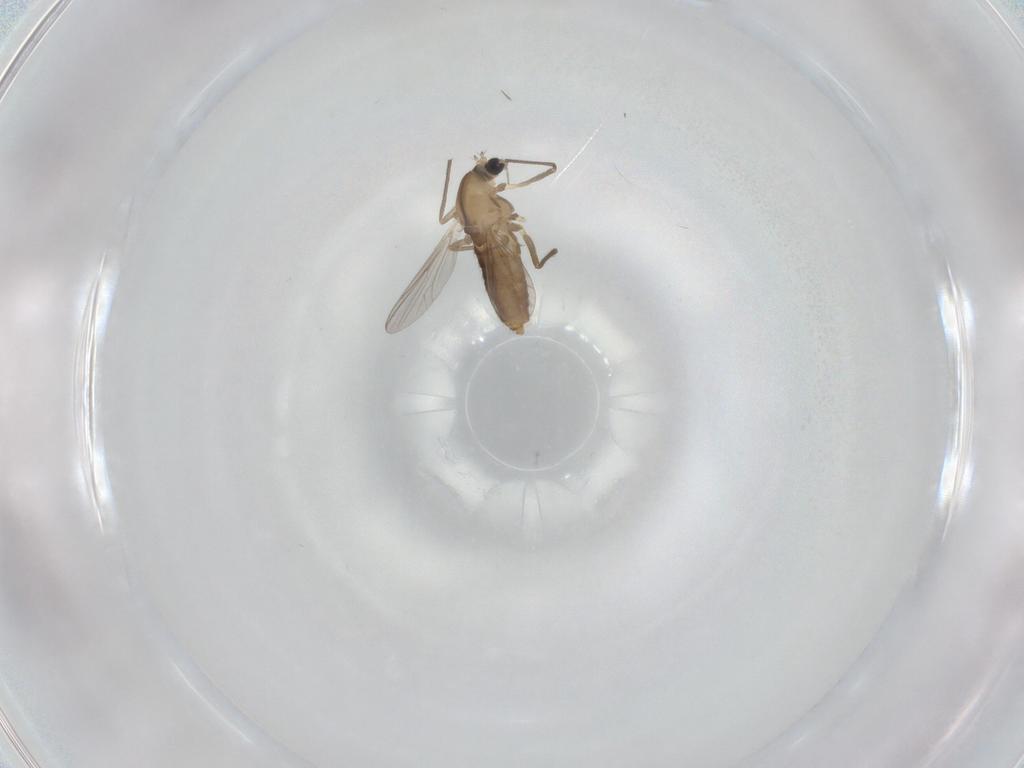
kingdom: Animalia
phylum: Arthropoda
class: Insecta
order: Diptera
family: Chironomidae
